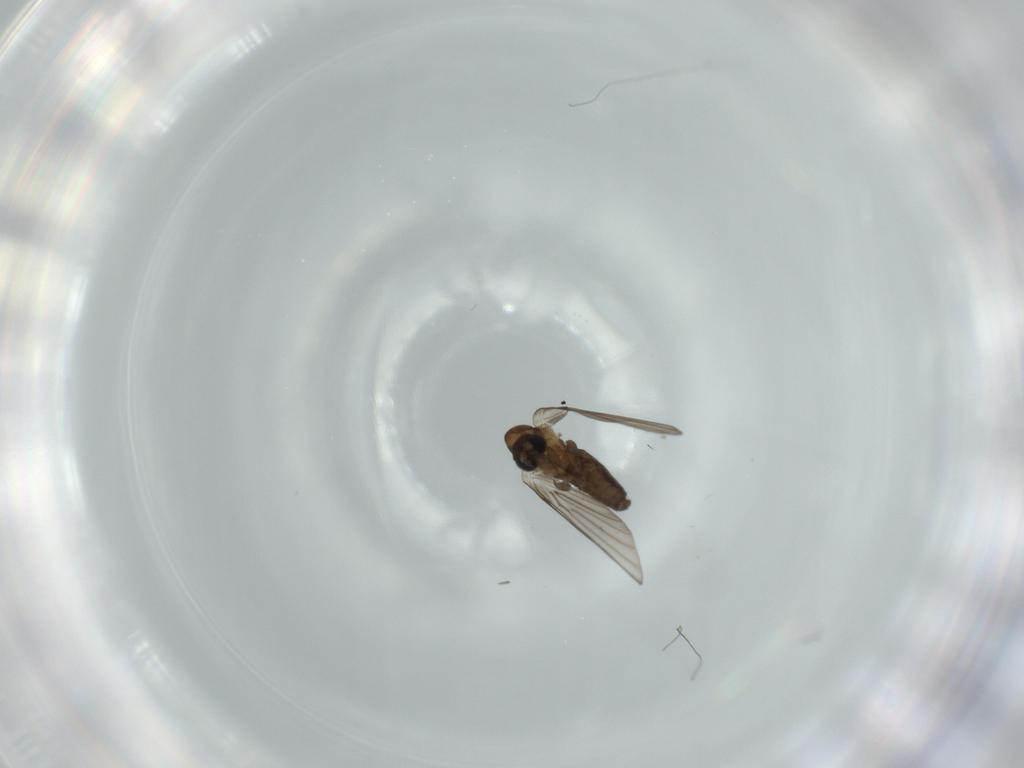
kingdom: Animalia
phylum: Arthropoda
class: Insecta
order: Diptera
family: Psychodidae
